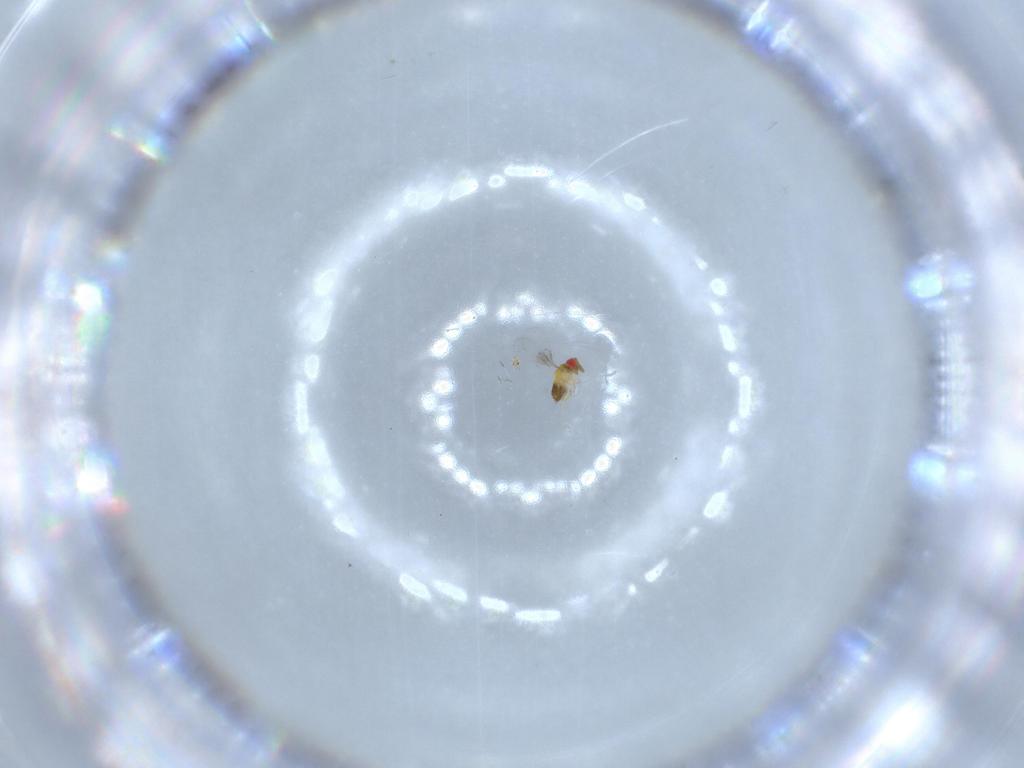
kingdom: Animalia
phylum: Arthropoda
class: Insecta
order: Hymenoptera
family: Trichogrammatidae
